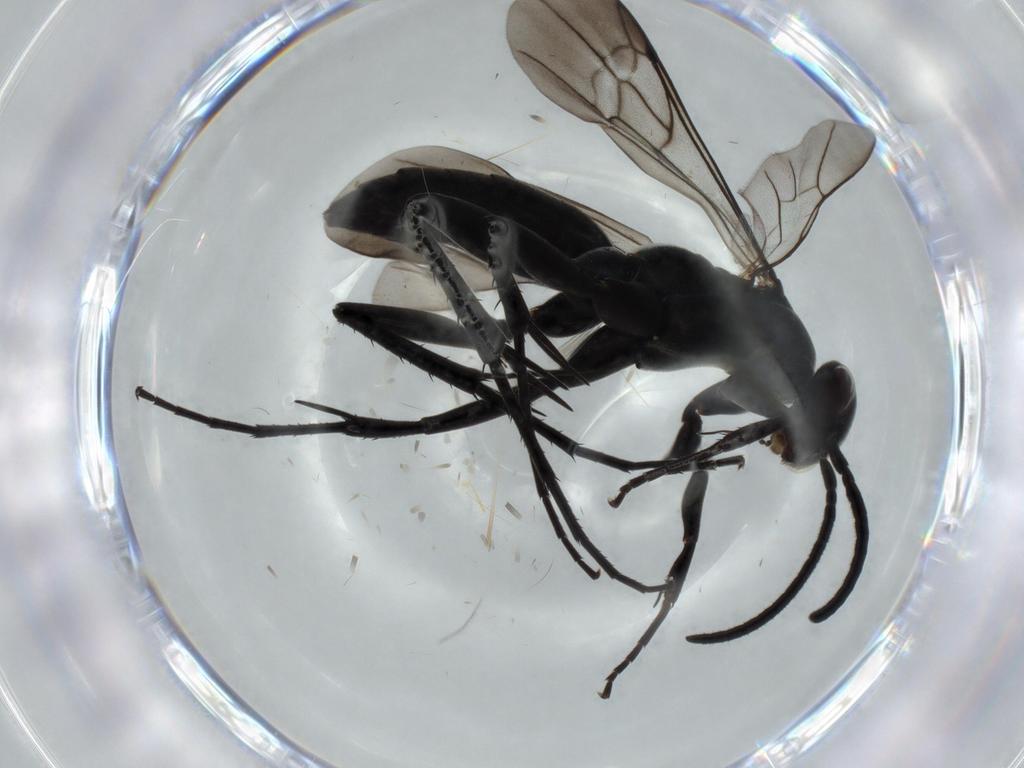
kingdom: Animalia
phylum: Arthropoda
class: Insecta
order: Hymenoptera
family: Pompilidae
